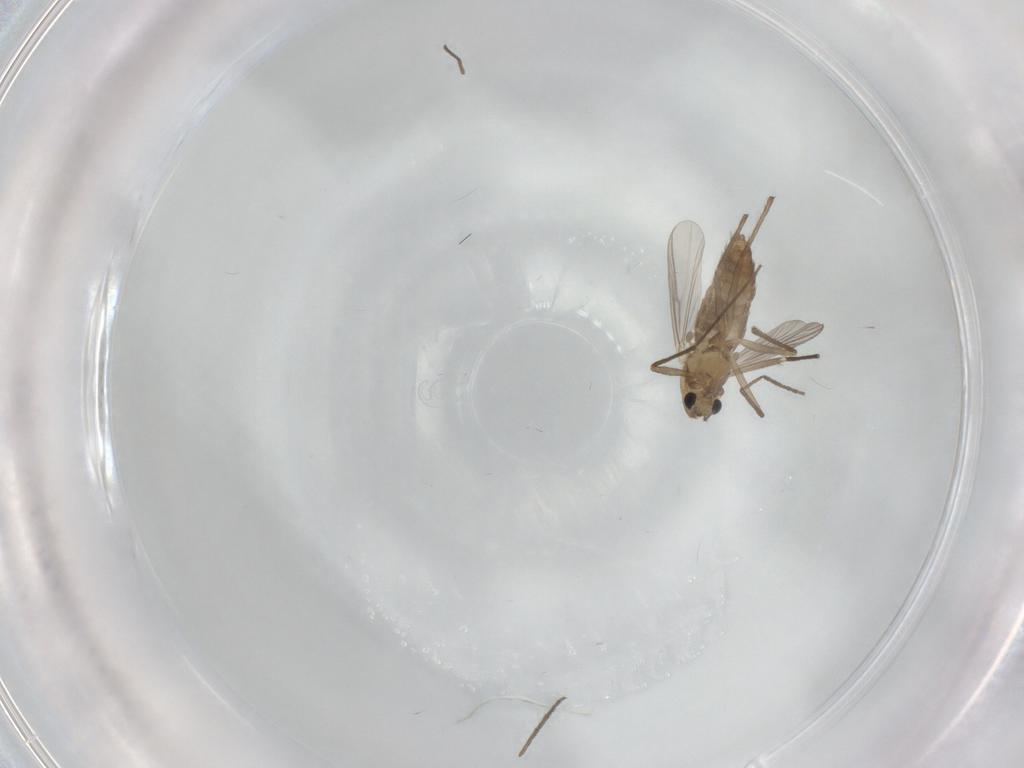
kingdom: Animalia
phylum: Arthropoda
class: Insecta
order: Diptera
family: Chironomidae
